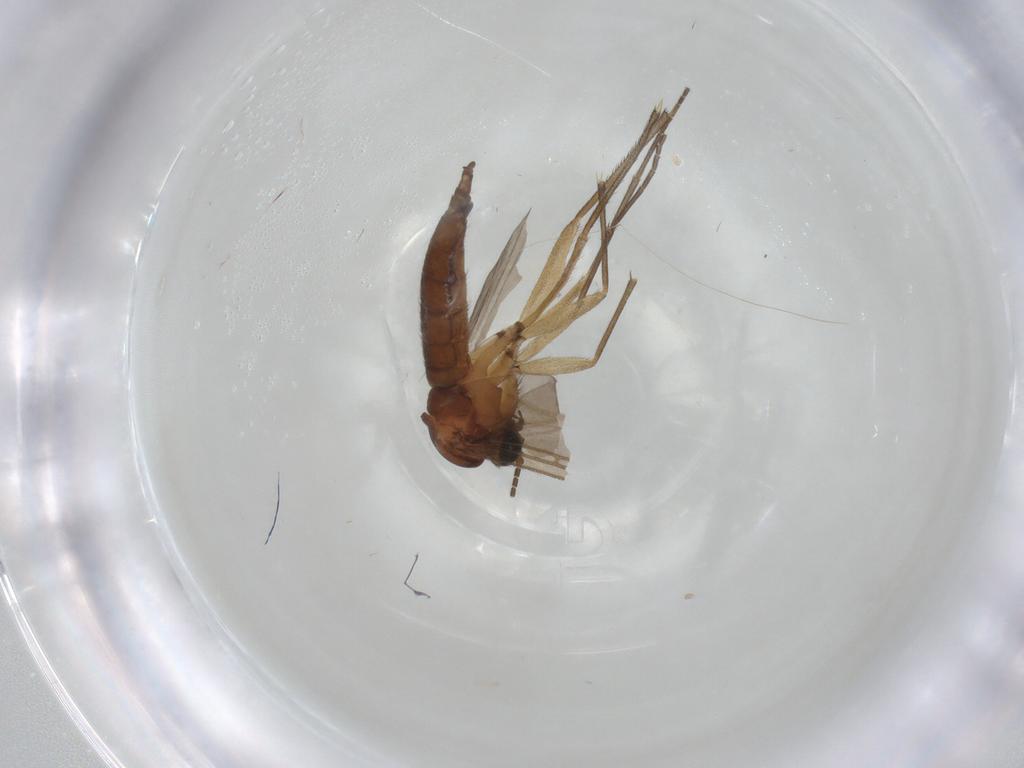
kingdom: Animalia
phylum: Arthropoda
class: Insecta
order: Diptera
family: Sciaridae
